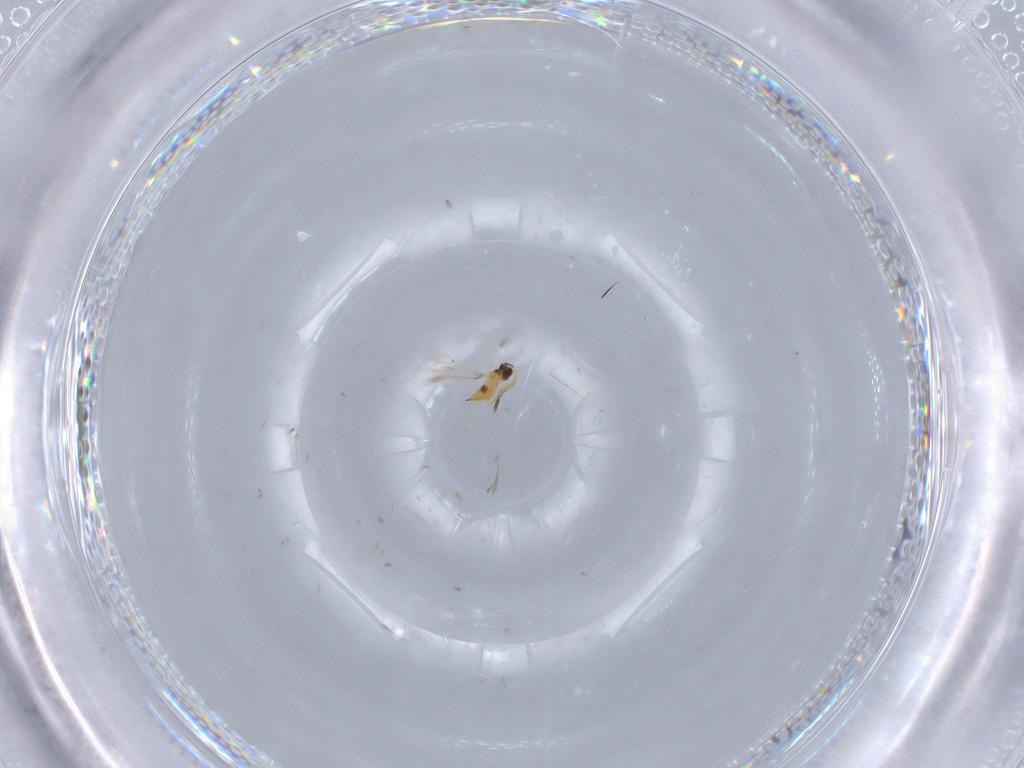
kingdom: Animalia
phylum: Arthropoda
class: Insecta
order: Hymenoptera
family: Mymaridae
